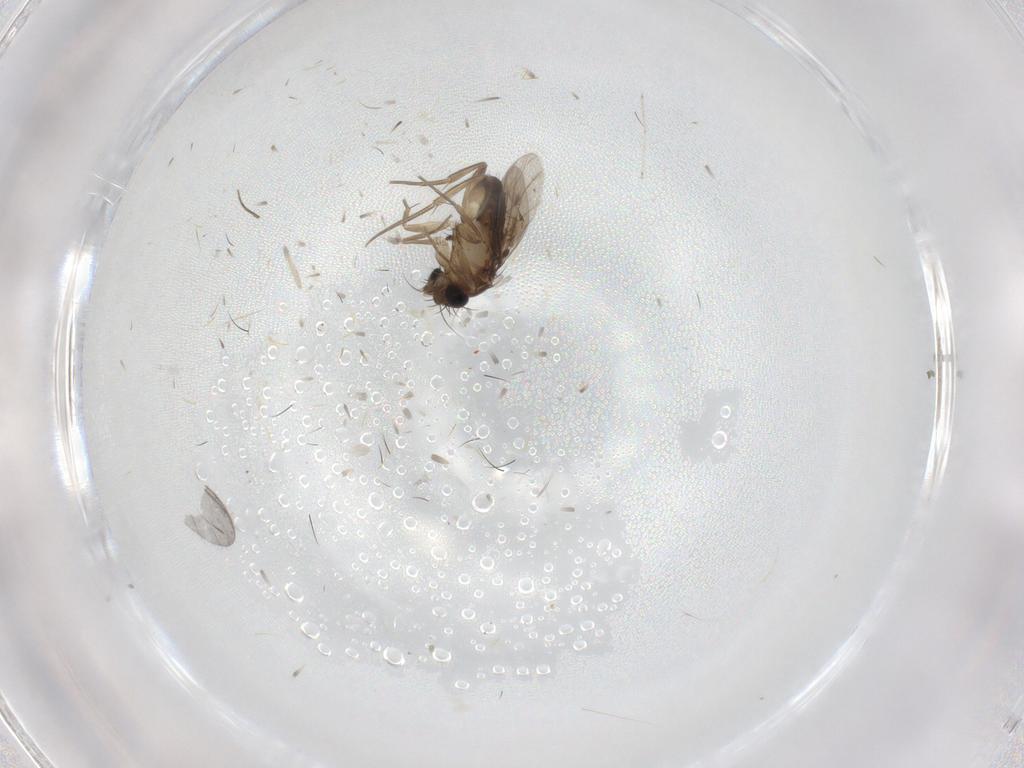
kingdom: Animalia
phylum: Arthropoda
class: Insecta
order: Diptera
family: Phoridae
